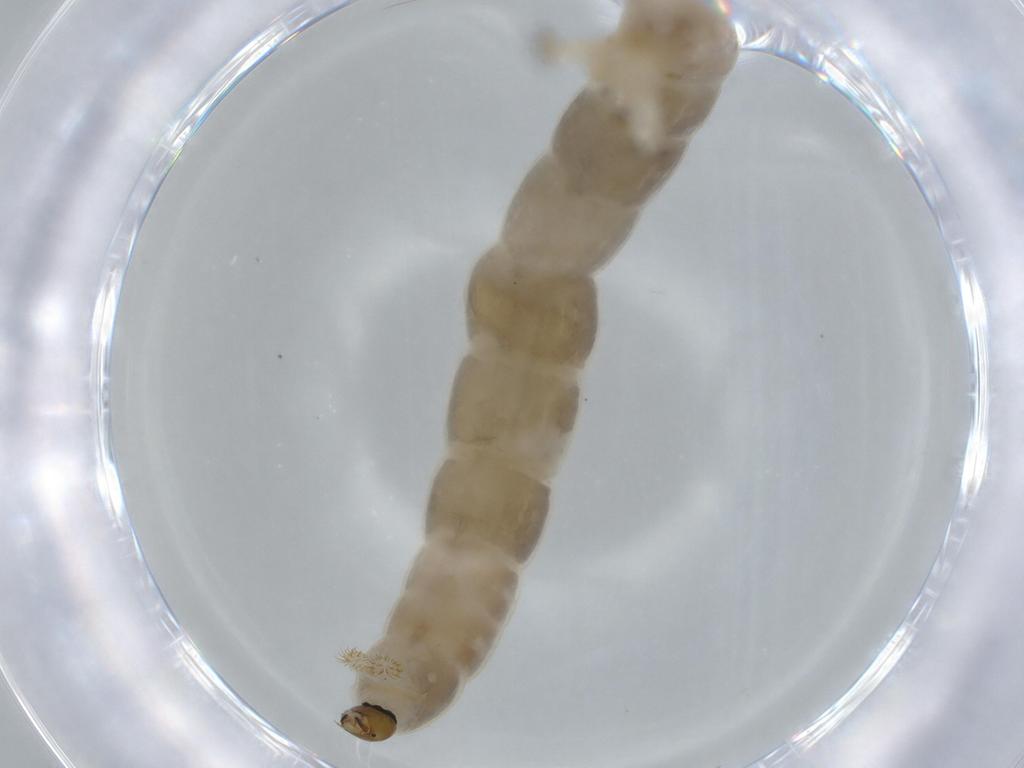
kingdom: Animalia
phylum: Arthropoda
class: Insecta
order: Diptera
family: Chironomidae
